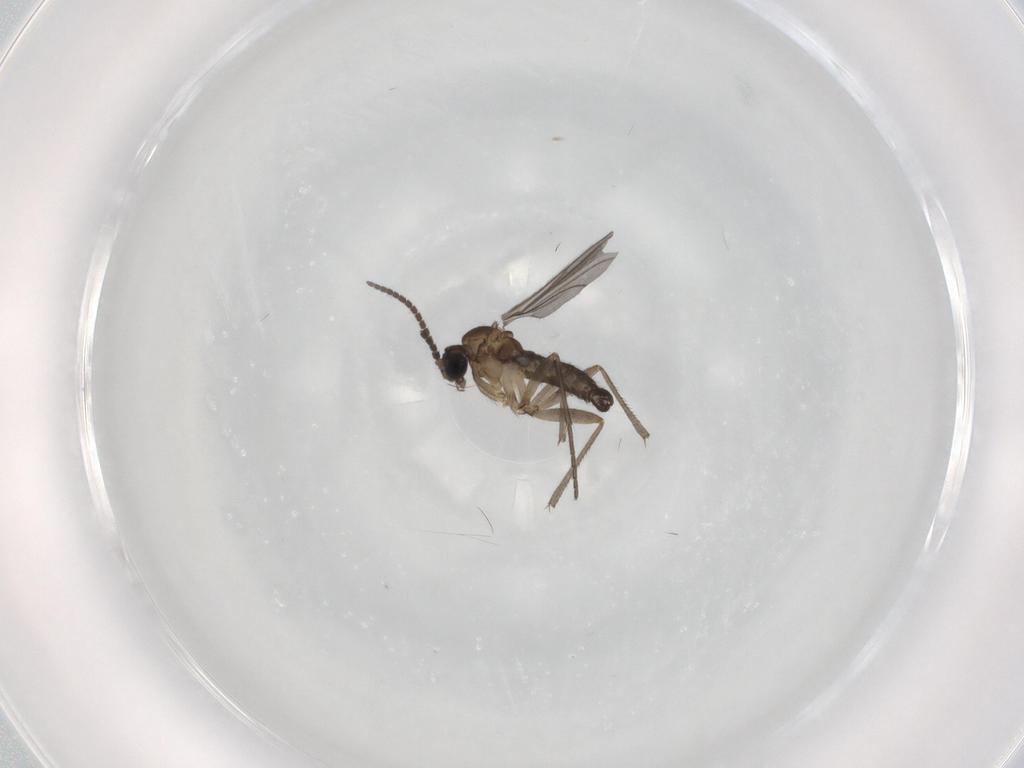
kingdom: Animalia
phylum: Arthropoda
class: Insecta
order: Diptera
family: Sciaridae
